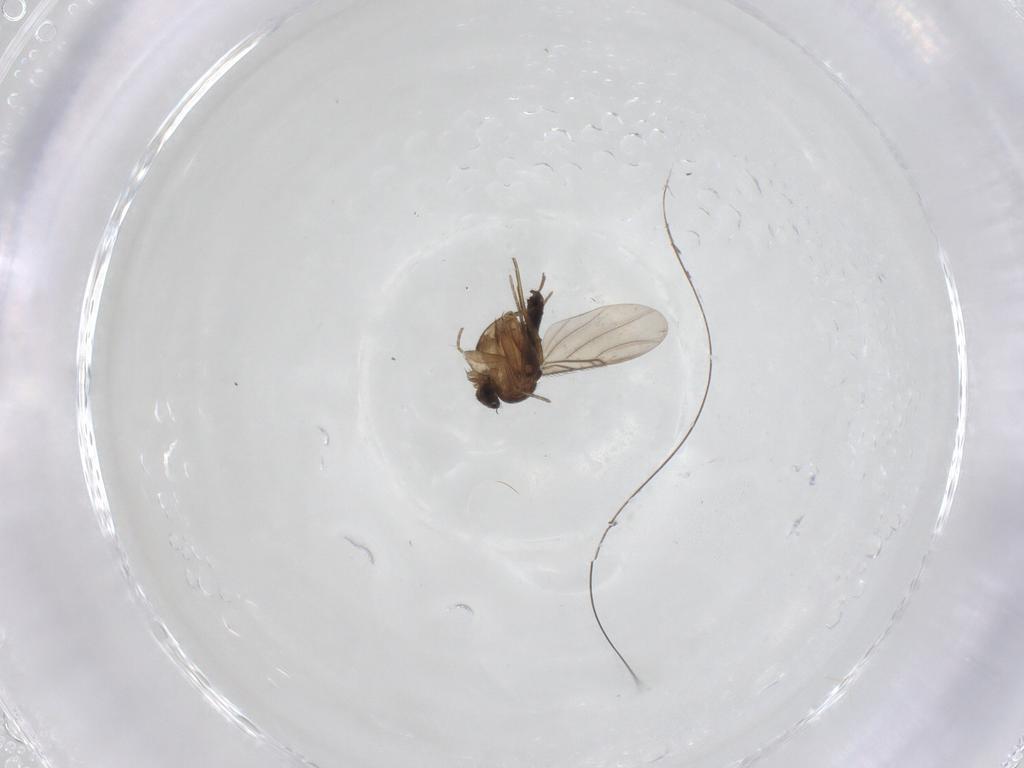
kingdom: Animalia
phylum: Arthropoda
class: Insecta
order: Diptera
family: Phoridae
